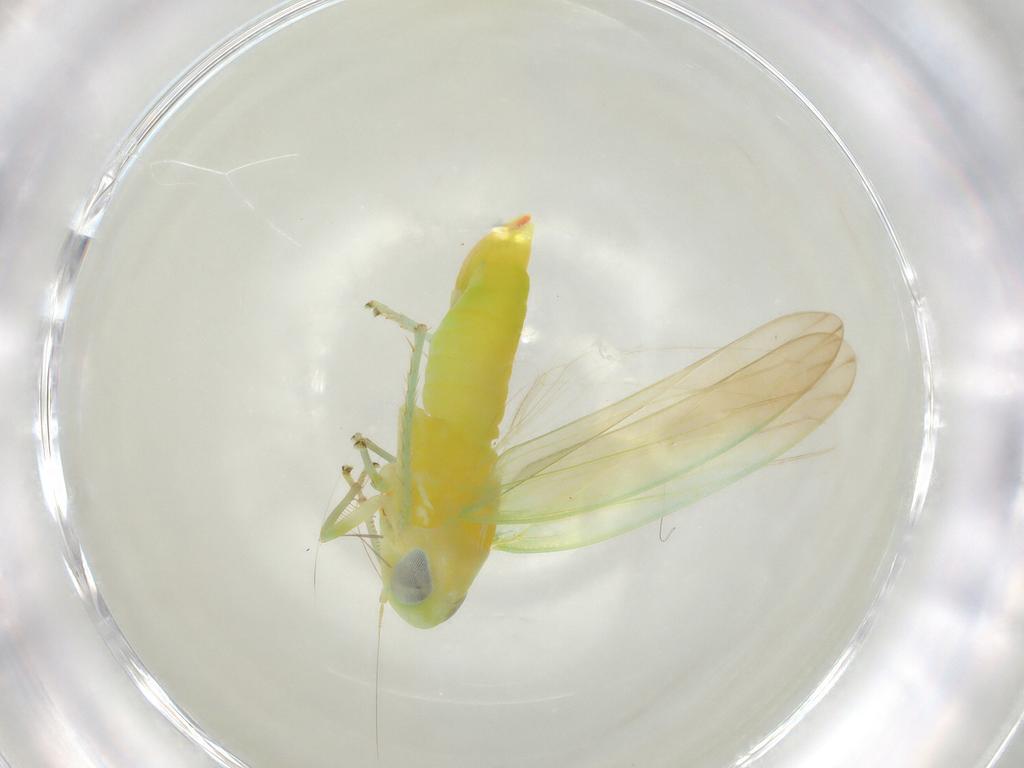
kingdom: Animalia
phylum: Arthropoda
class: Insecta
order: Hemiptera
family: Cicadellidae
